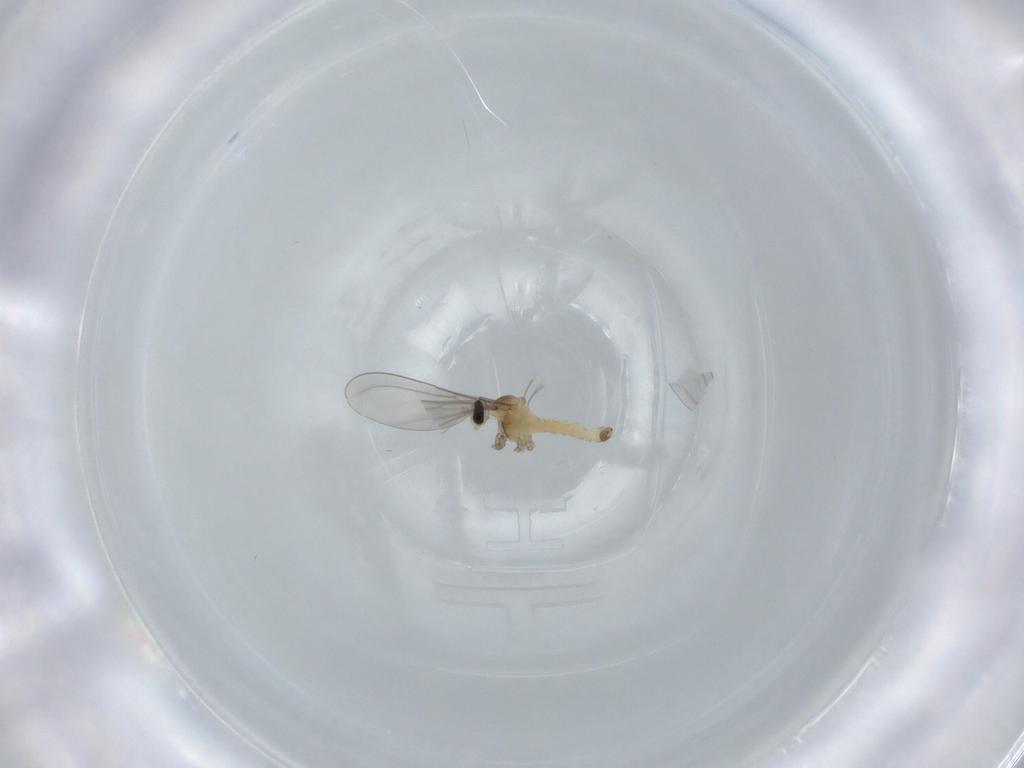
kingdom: Animalia
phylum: Arthropoda
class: Insecta
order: Diptera
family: Cecidomyiidae
